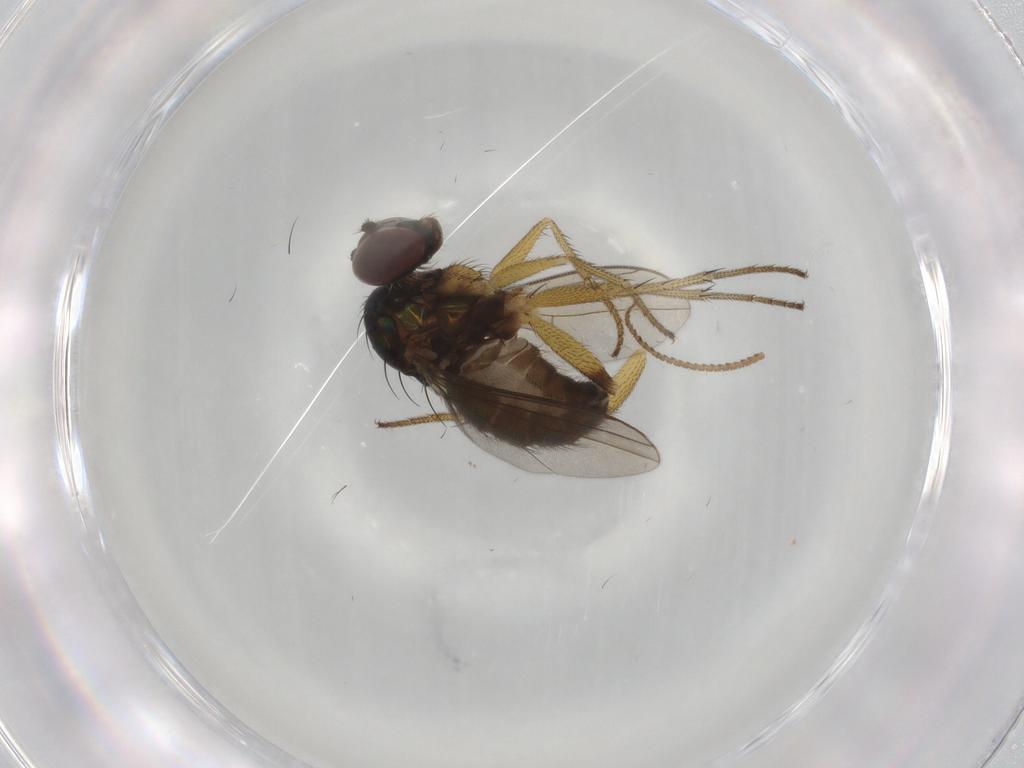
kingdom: Animalia
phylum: Arthropoda
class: Insecta
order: Diptera
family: Dolichopodidae
